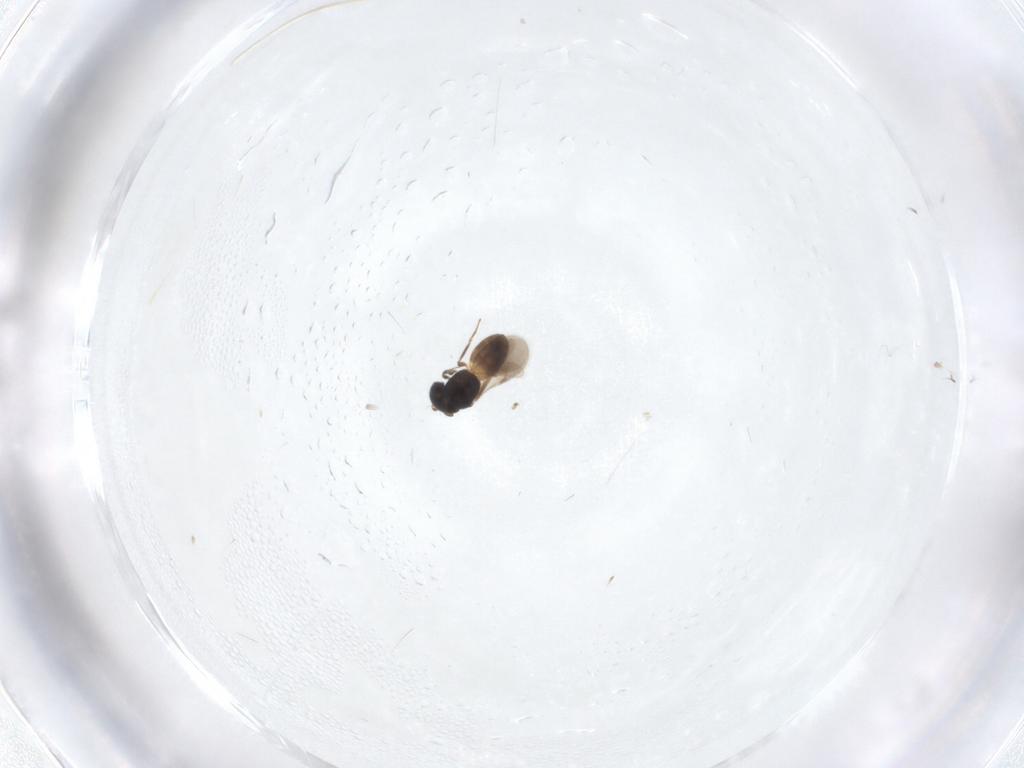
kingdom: Animalia
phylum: Arthropoda
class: Insecta
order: Hymenoptera
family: Scelionidae
